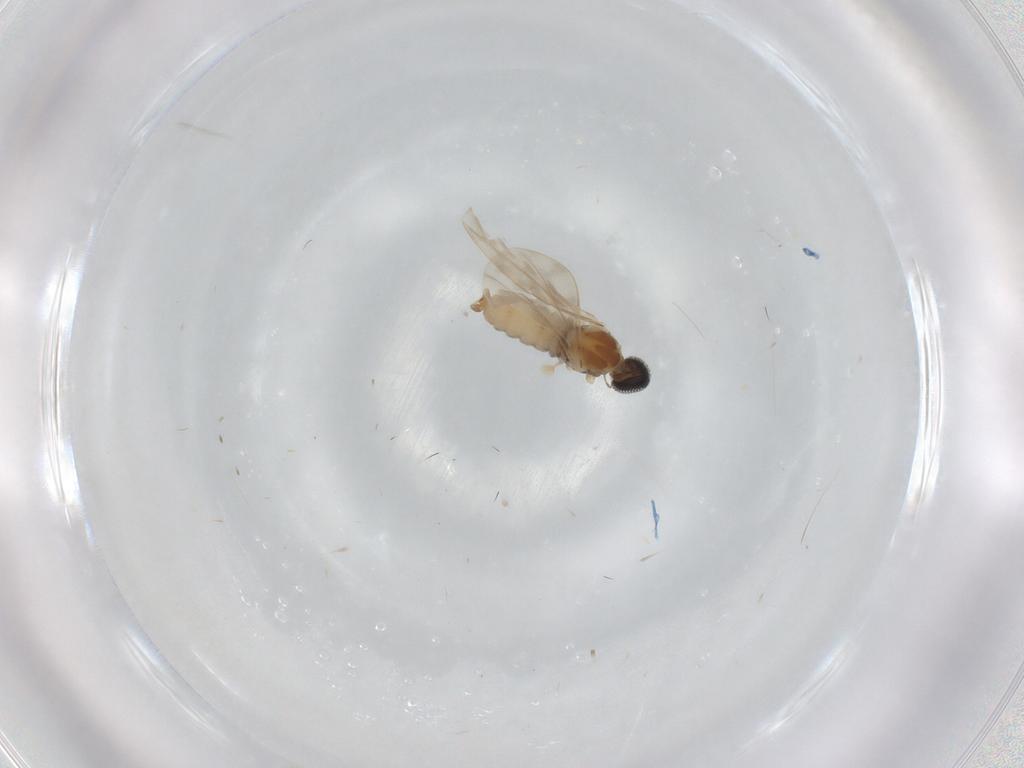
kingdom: Animalia
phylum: Arthropoda
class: Insecta
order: Diptera
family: Cecidomyiidae
